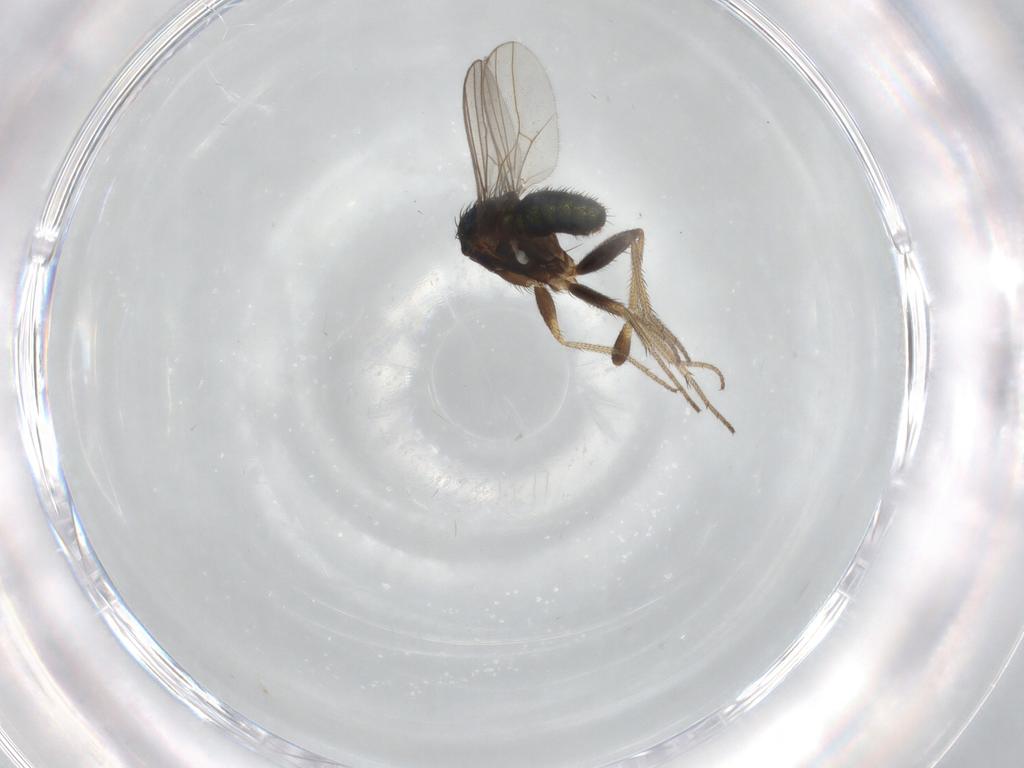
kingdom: Animalia
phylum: Arthropoda
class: Insecta
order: Diptera
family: Dolichopodidae
